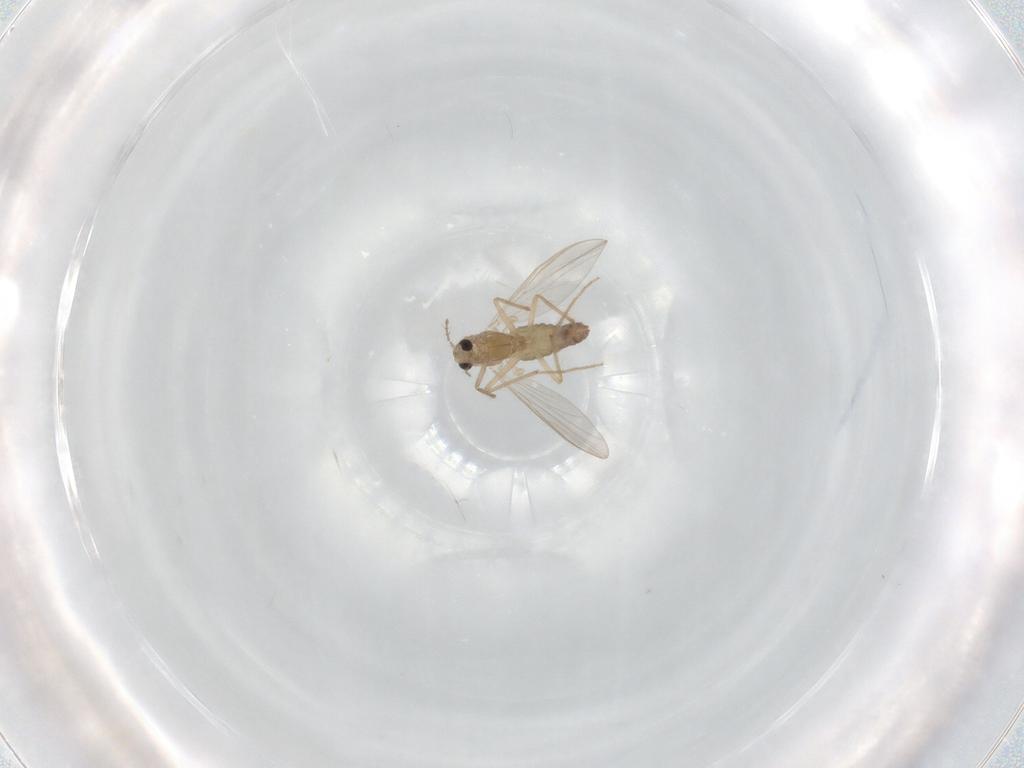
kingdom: Animalia
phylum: Arthropoda
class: Insecta
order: Diptera
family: Chironomidae
